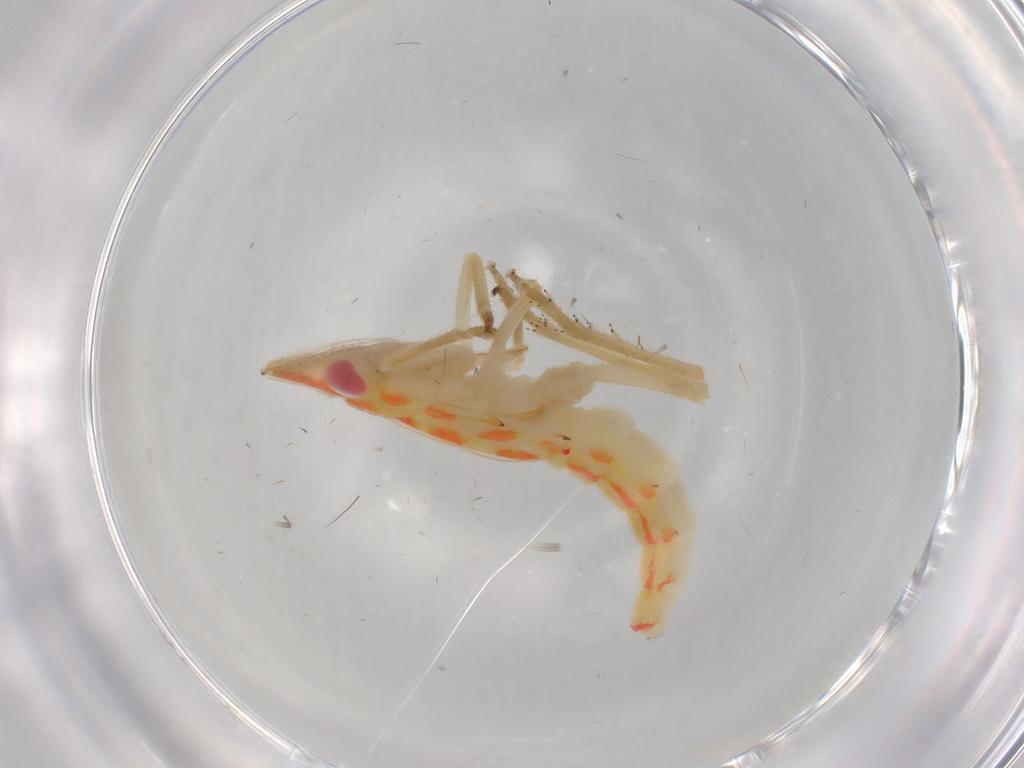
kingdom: Animalia
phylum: Arthropoda
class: Insecta
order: Hemiptera
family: Tropiduchidae
